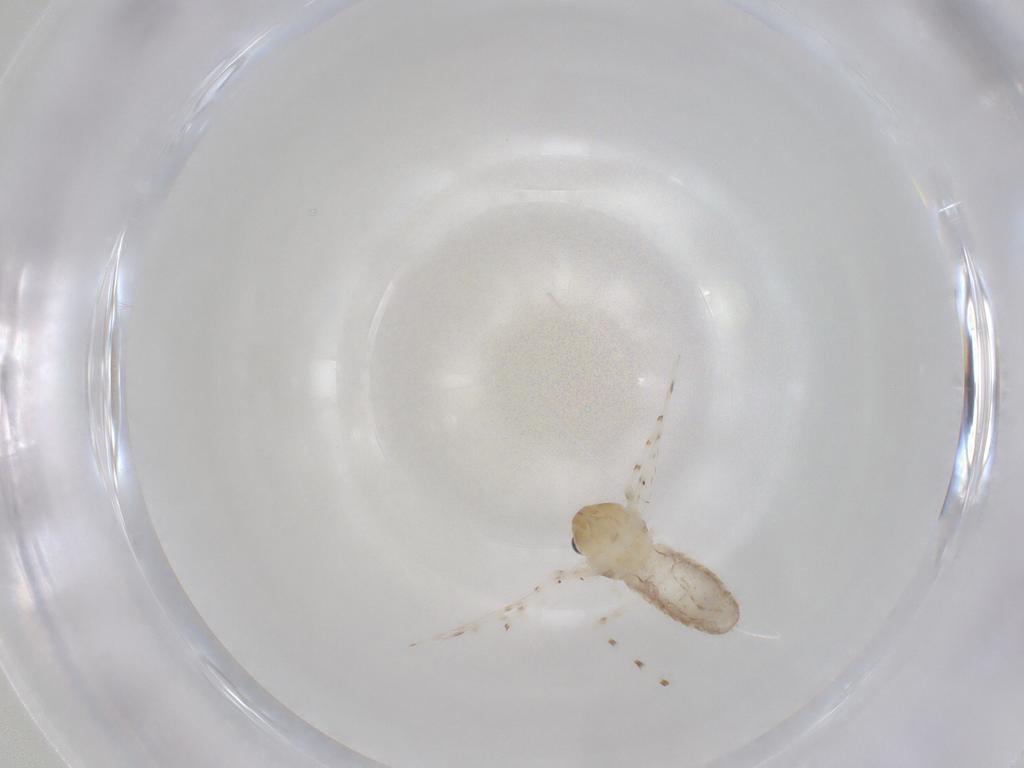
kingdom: Animalia
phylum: Arthropoda
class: Insecta
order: Diptera
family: Chironomidae
